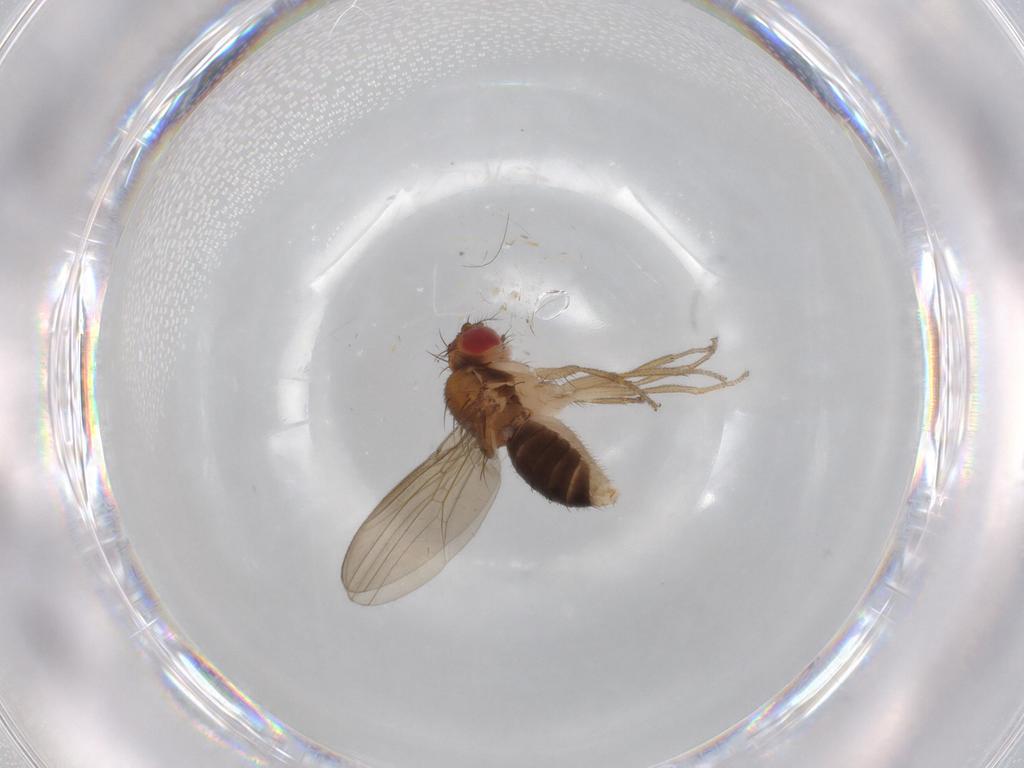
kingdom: Animalia
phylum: Arthropoda
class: Insecta
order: Diptera
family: Drosophilidae
